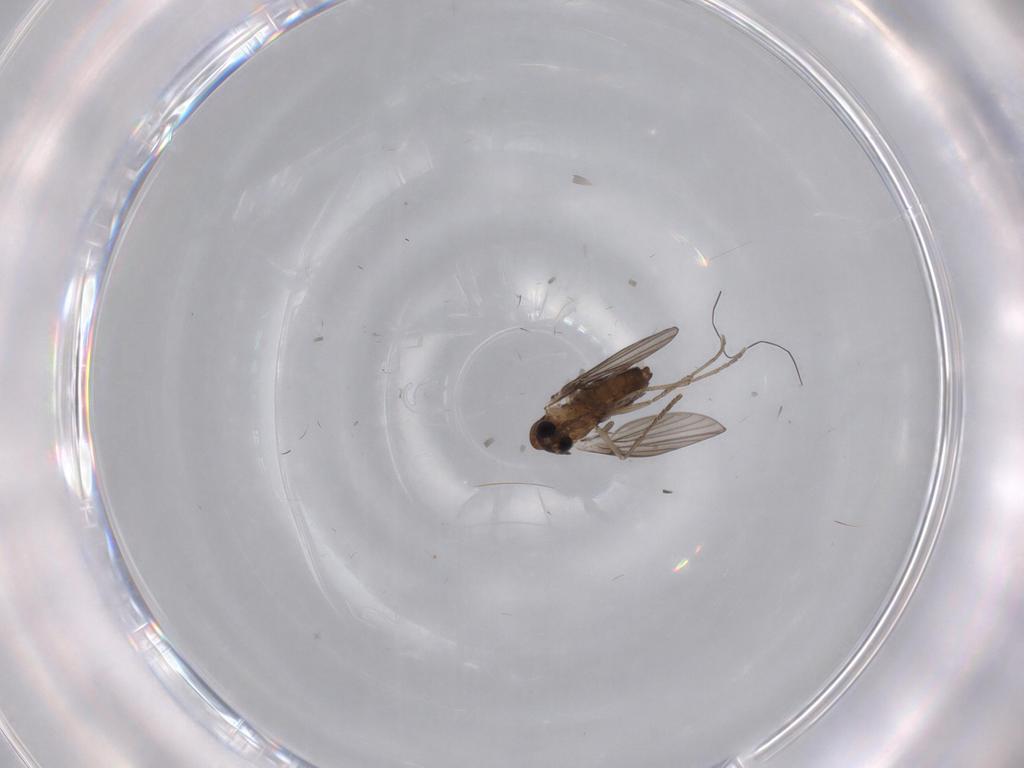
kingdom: Animalia
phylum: Arthropoda
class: Insecta
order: Diptera
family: Psychodidae
